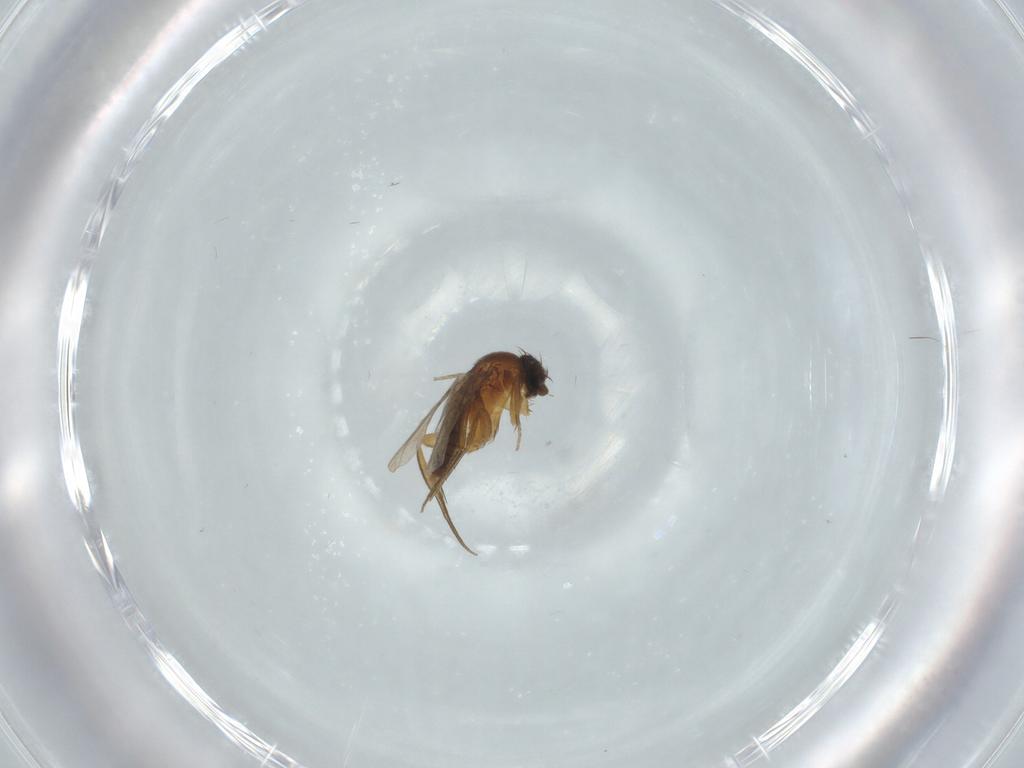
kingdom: Animalia
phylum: Arthropoda
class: Insecta
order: Diptera
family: Phoridae
